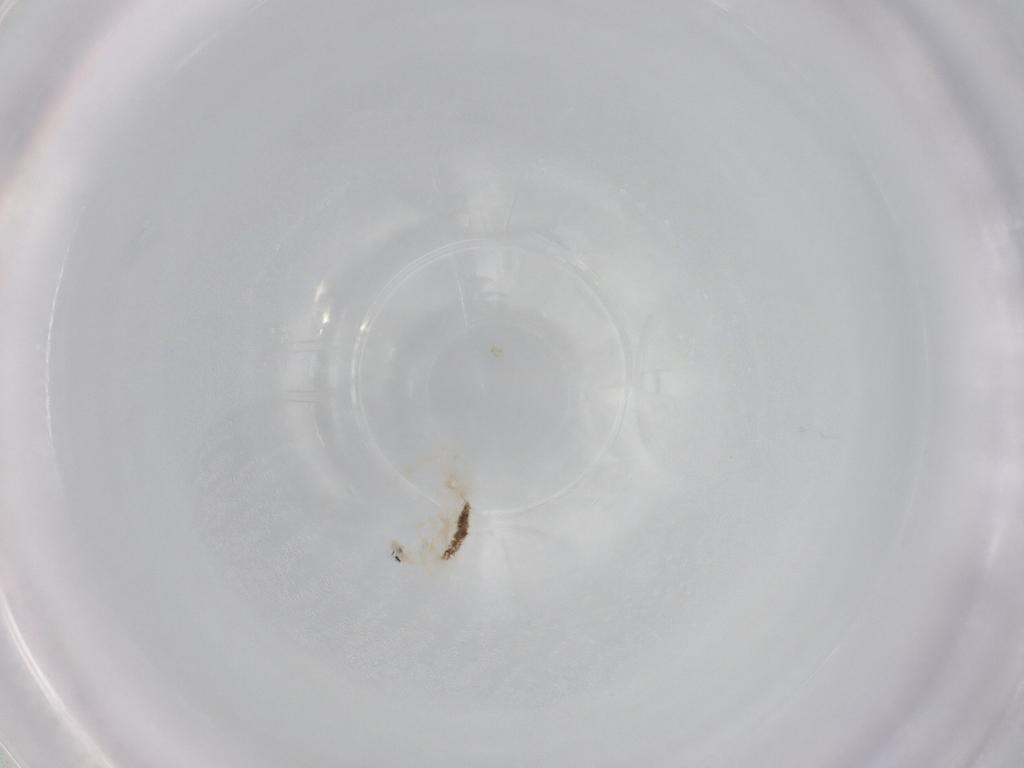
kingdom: Animalia
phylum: Arthropoda
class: Collembola
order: Entomobryomorpha
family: Entomobryidae
